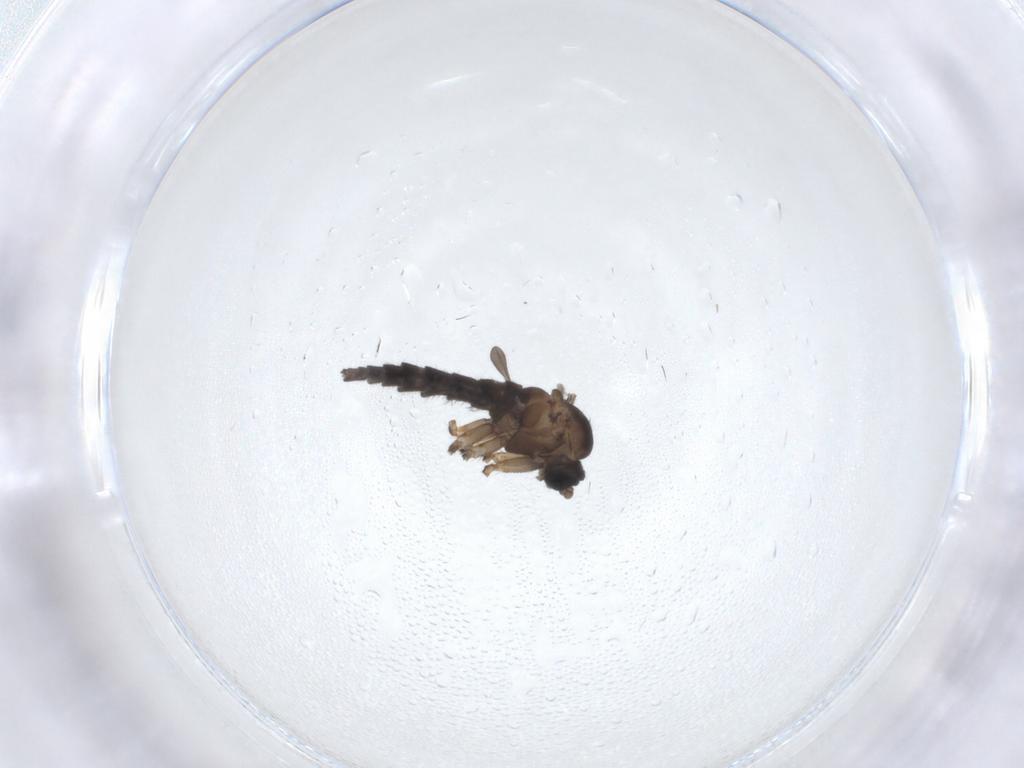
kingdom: Animalia
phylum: Arthropoda
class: Insecta
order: Diptera
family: Sciaridae
